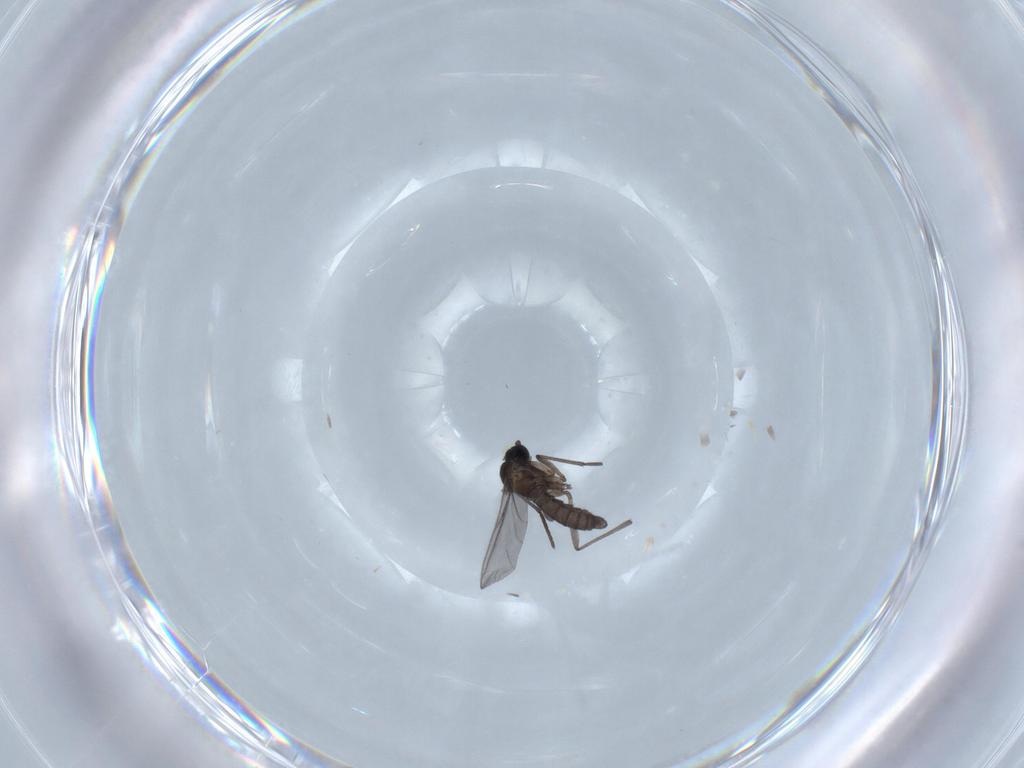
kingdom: Animalia
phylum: Arthropoda
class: Insecta
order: Diptera
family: Sciaridae
